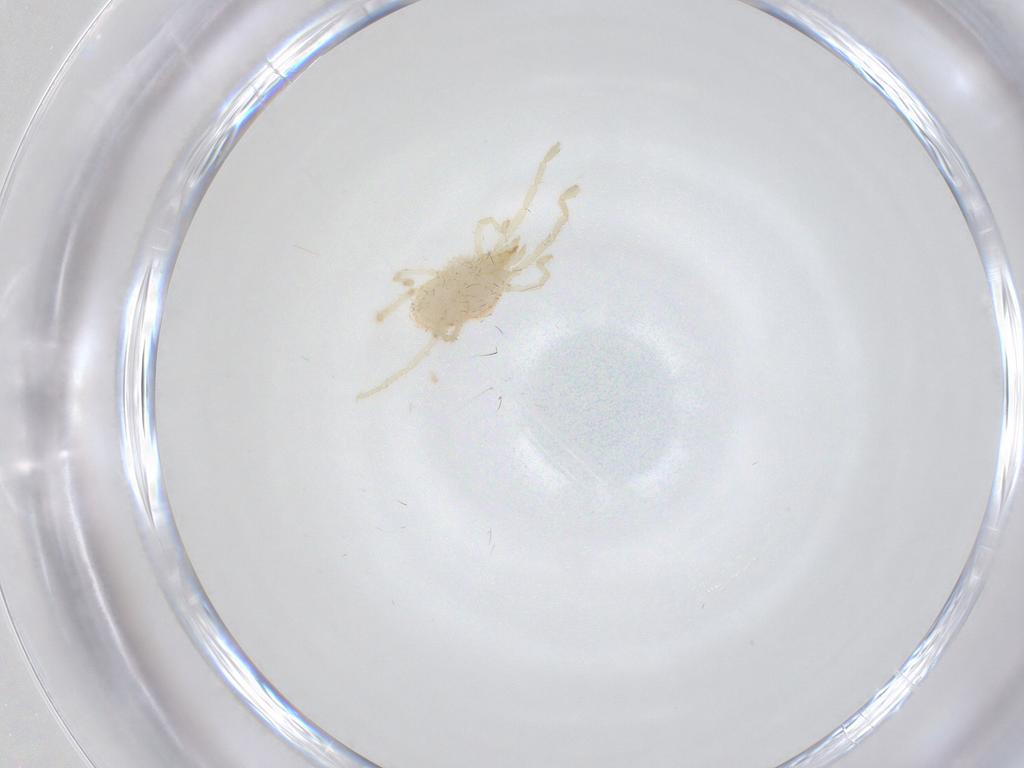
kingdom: Animalia
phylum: Arthropoda
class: Arachnida
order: Trombidiformes
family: Erythraeidae
